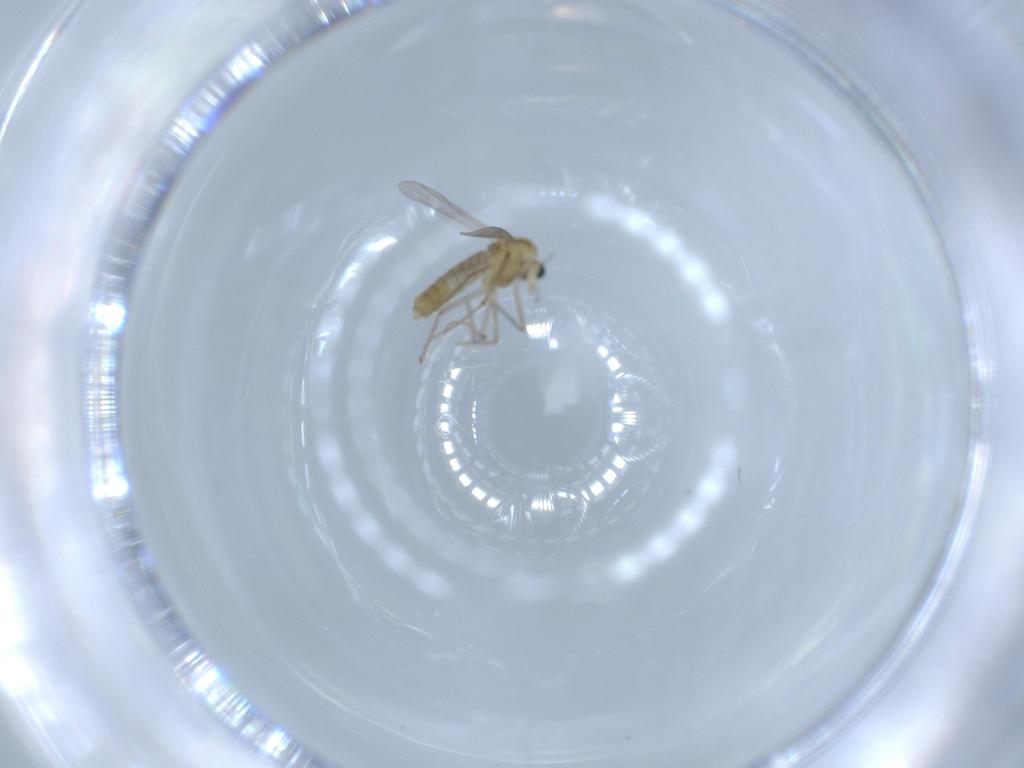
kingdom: Animalia
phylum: Arthropoda
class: Insecta
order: Diptera
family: Chironomidae
